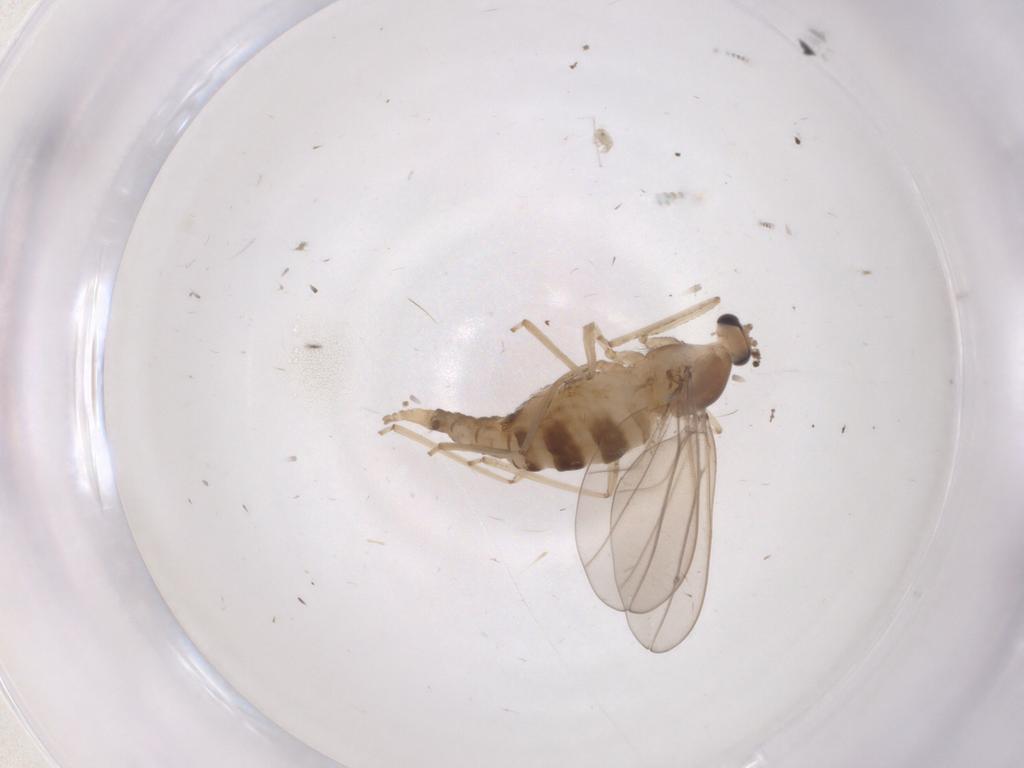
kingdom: Animalia
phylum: Arthropoda
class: Insecta
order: Diptera
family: Cecidomyiidae
